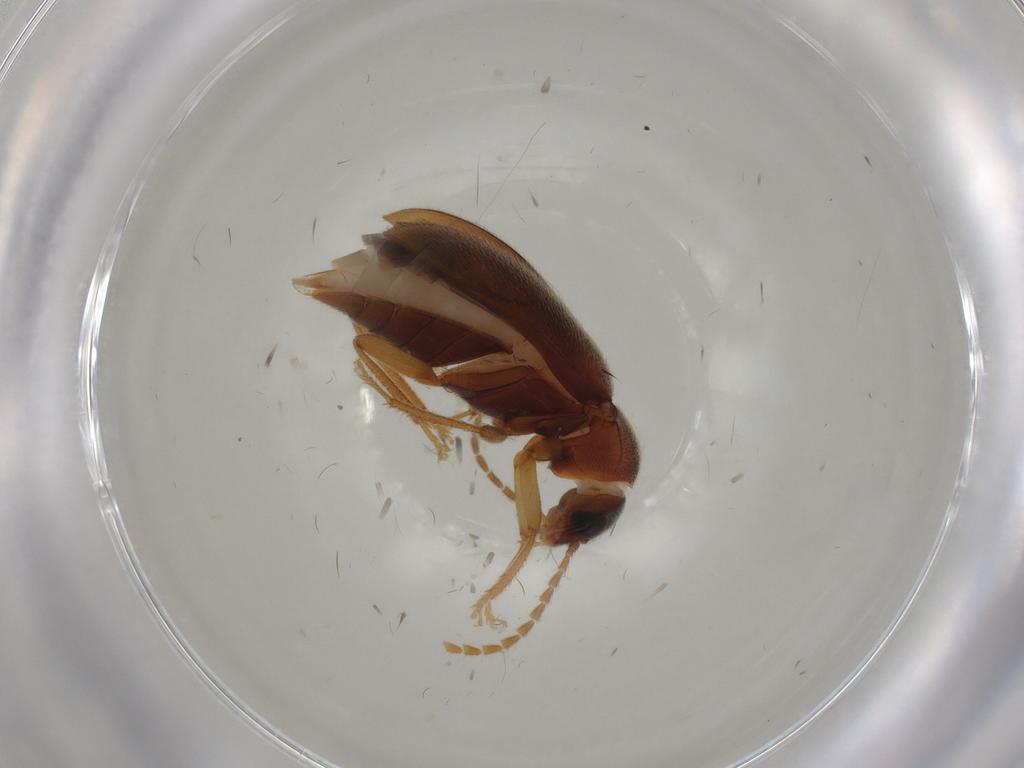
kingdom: Animalia
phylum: Arthropoda
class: Insecta
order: Coleoptera
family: Ptilodactylidae
